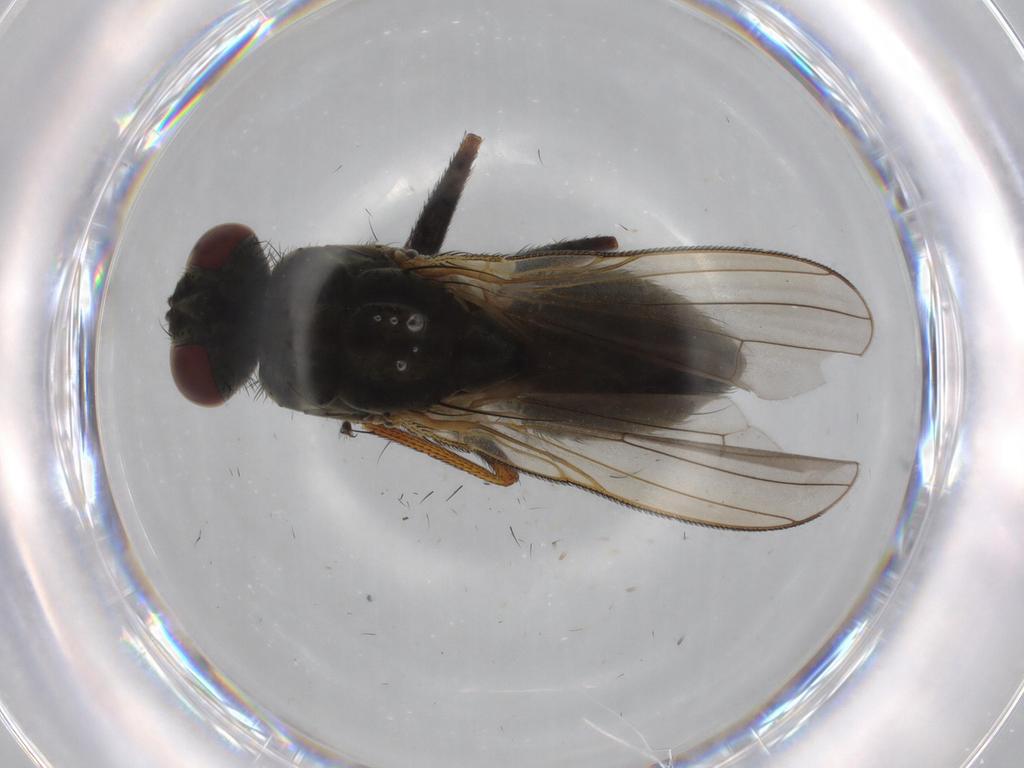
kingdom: Animalia
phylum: Arthropoda
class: Insecta
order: Diptera
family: Muscidae
